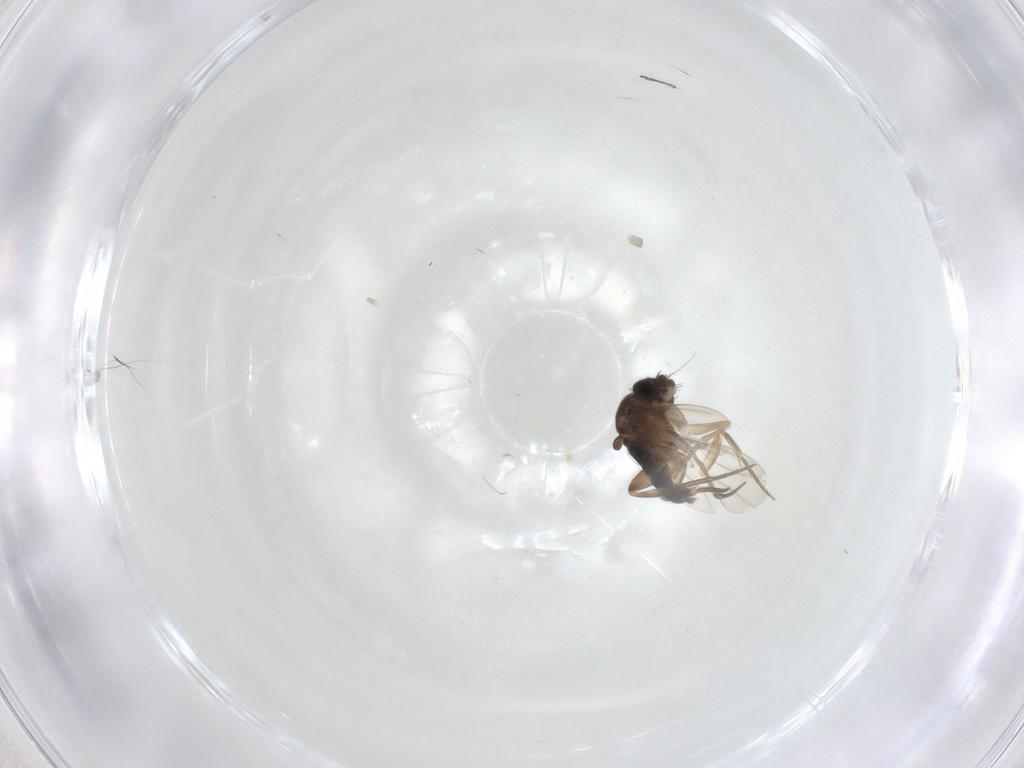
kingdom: Animalia
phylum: Arthropoda
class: Insecta
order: Diptera
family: Phoridae
